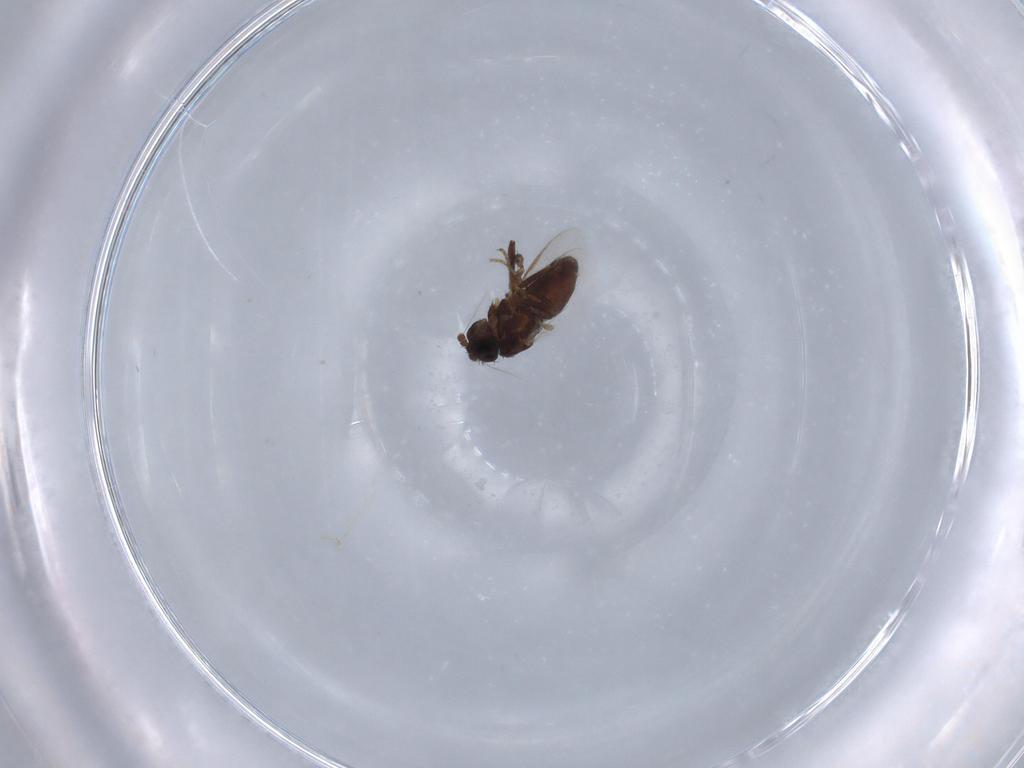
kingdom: Animalia
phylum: Arthropoda
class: Insecta
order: Diptera
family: Sphaeroceridae
